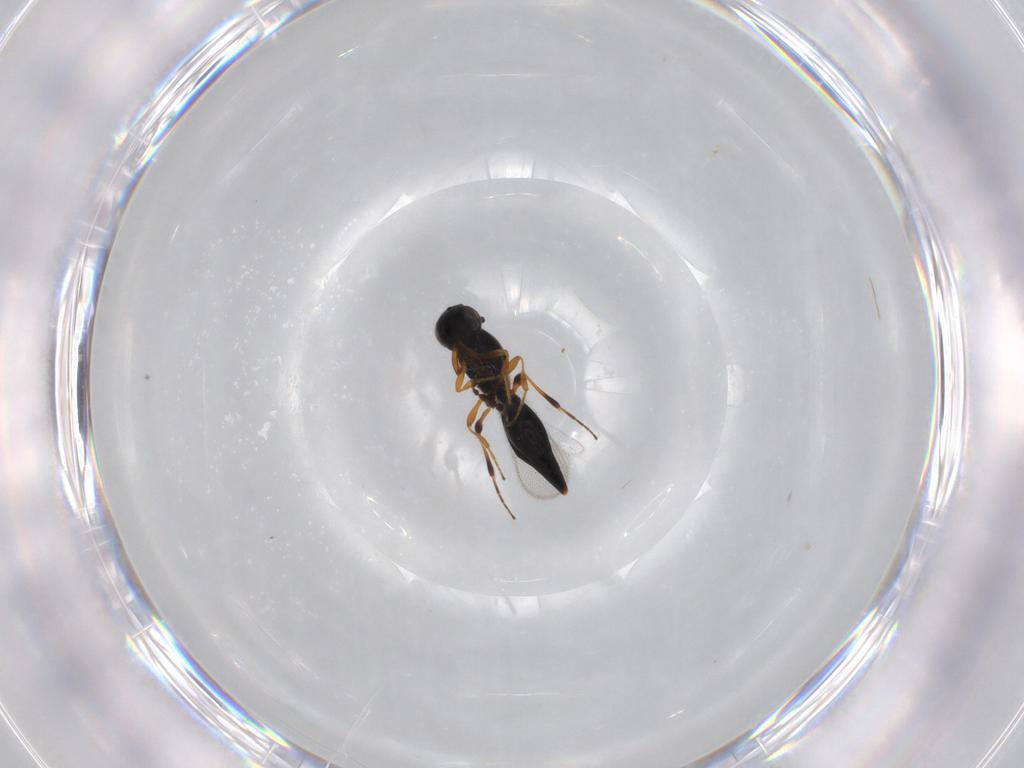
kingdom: Animalia
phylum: Arthropoda
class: Insecta
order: Hymenoptera
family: Platygastridae
